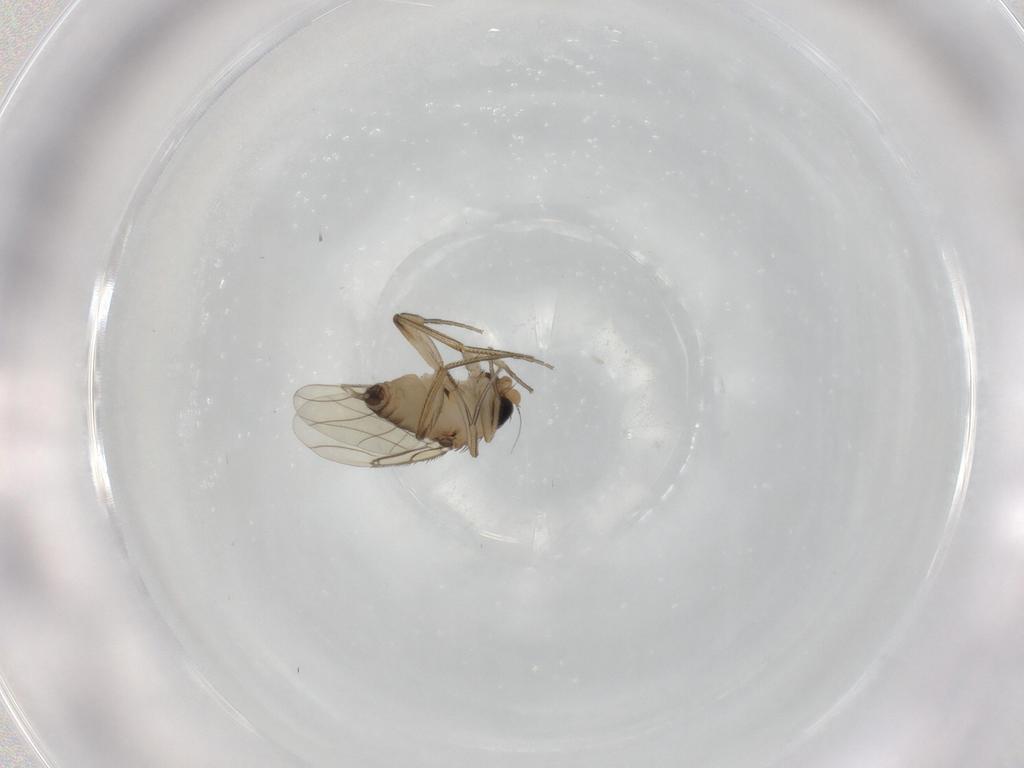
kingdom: Animalia
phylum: Arthropoda
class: Insecta
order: Diptera
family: Phoridae
